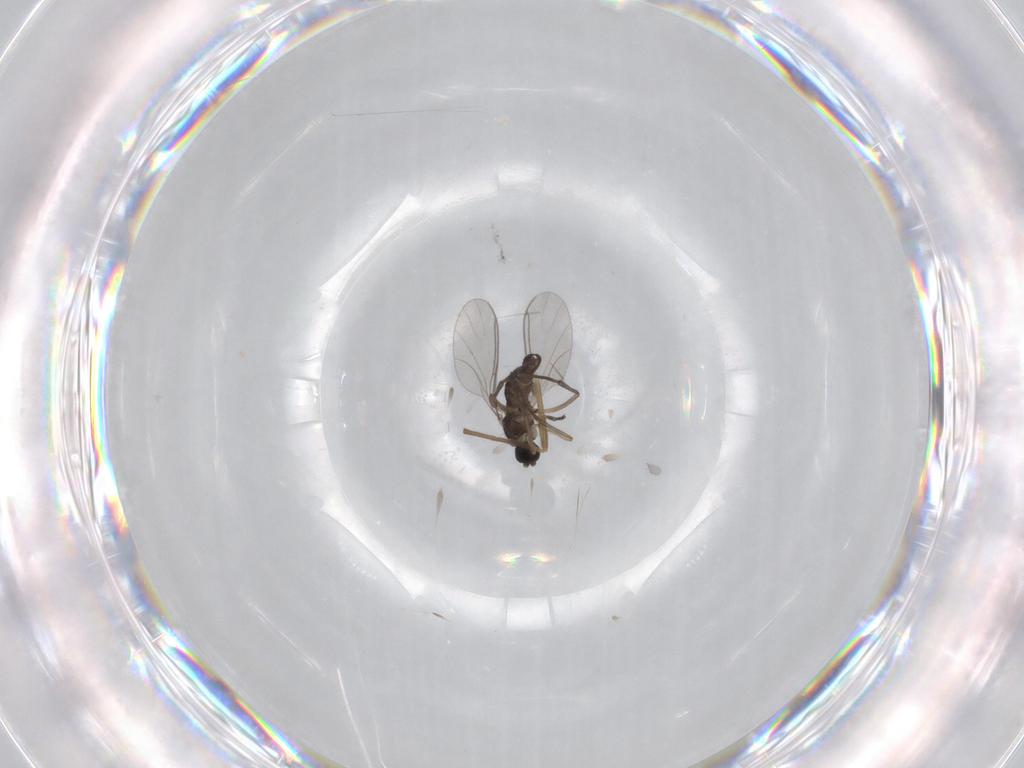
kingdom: Animalia
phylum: Arthropoda
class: Insecta
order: Diptera
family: Sciaridae
